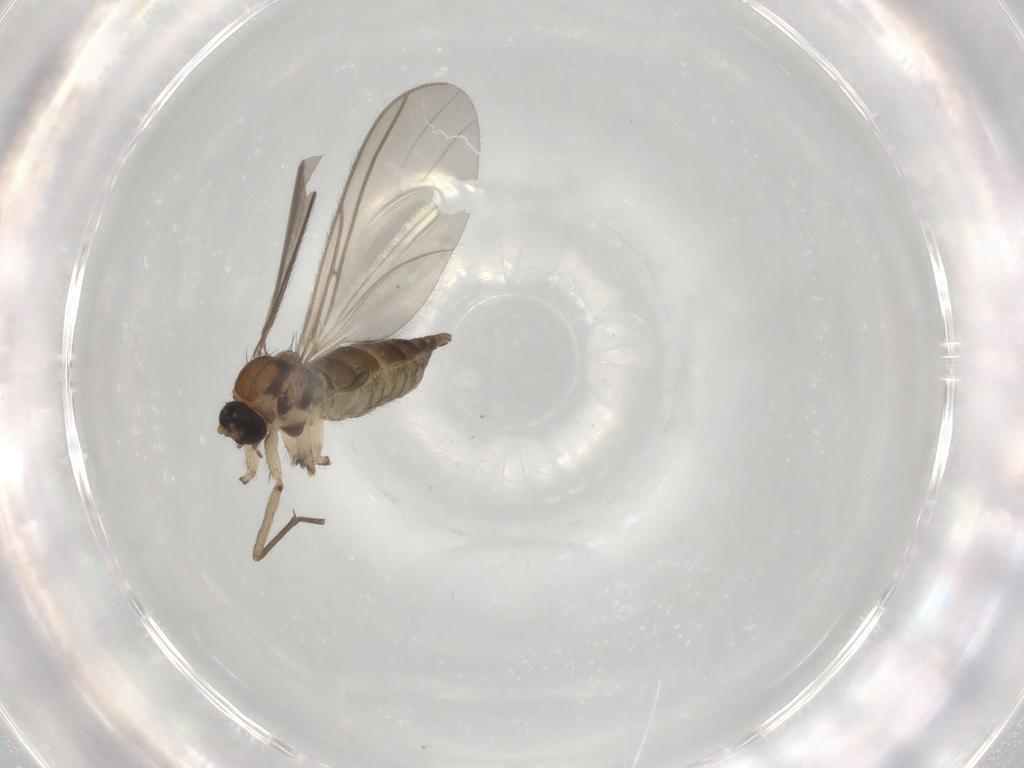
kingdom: Animalia
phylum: Arthropoda
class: Insecta
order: Diptera
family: Sciaridae
